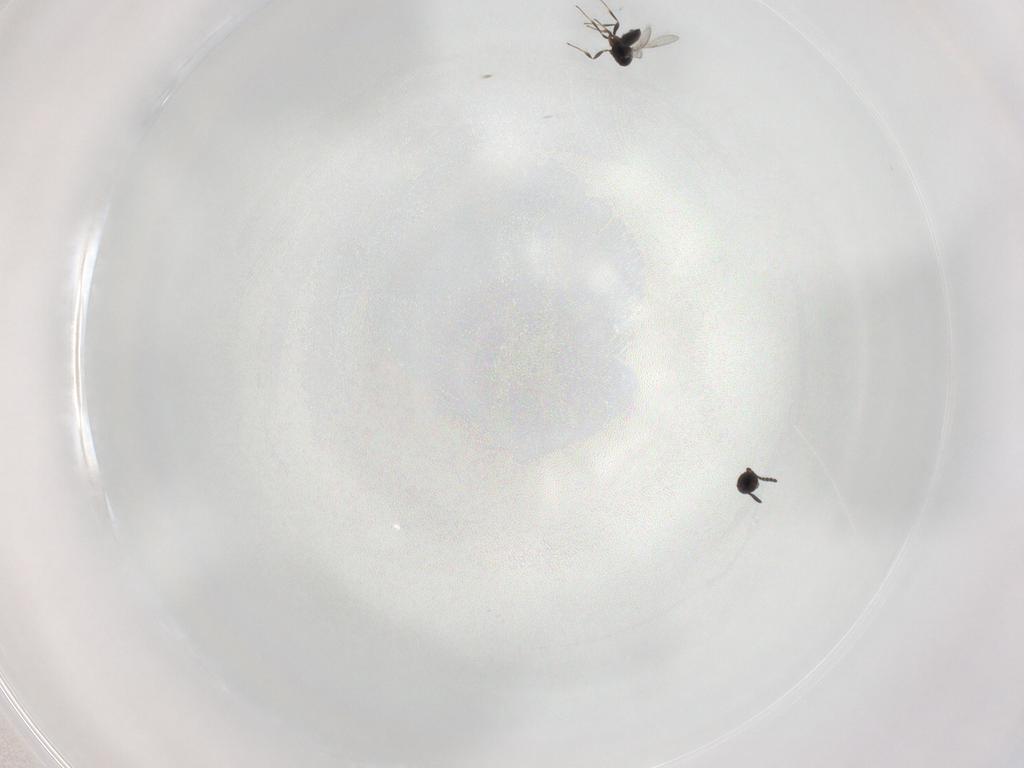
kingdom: Animalia
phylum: Arthropoda
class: Insecta
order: Hymenoptera
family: Scelionidae
